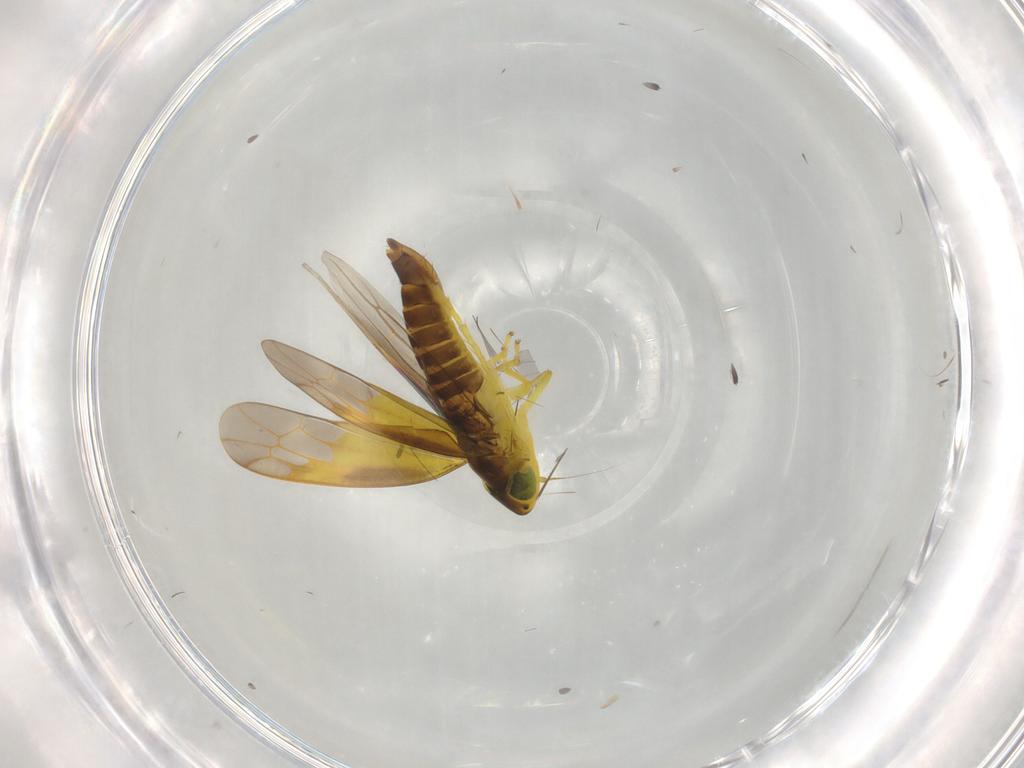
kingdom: Animalia
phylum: Arthropoda
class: Insecta
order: Hemiptera
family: Cicadellidae
